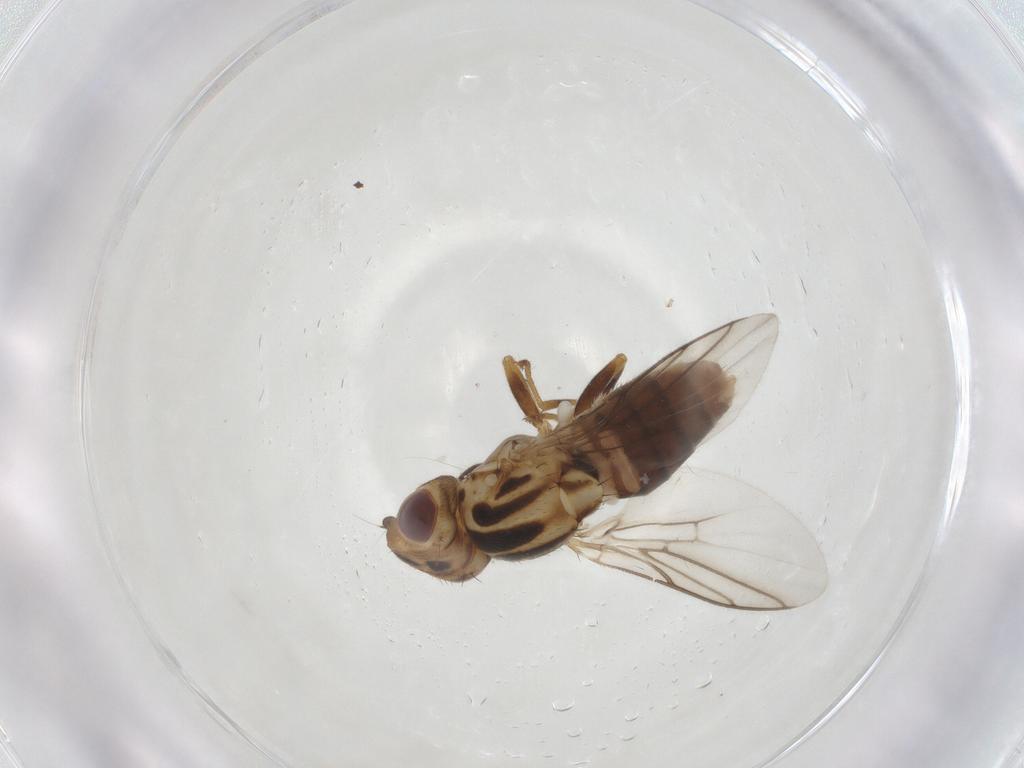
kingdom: Animalia
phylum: Arthropoda
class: Insecta
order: Diptera
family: Chloropidae
